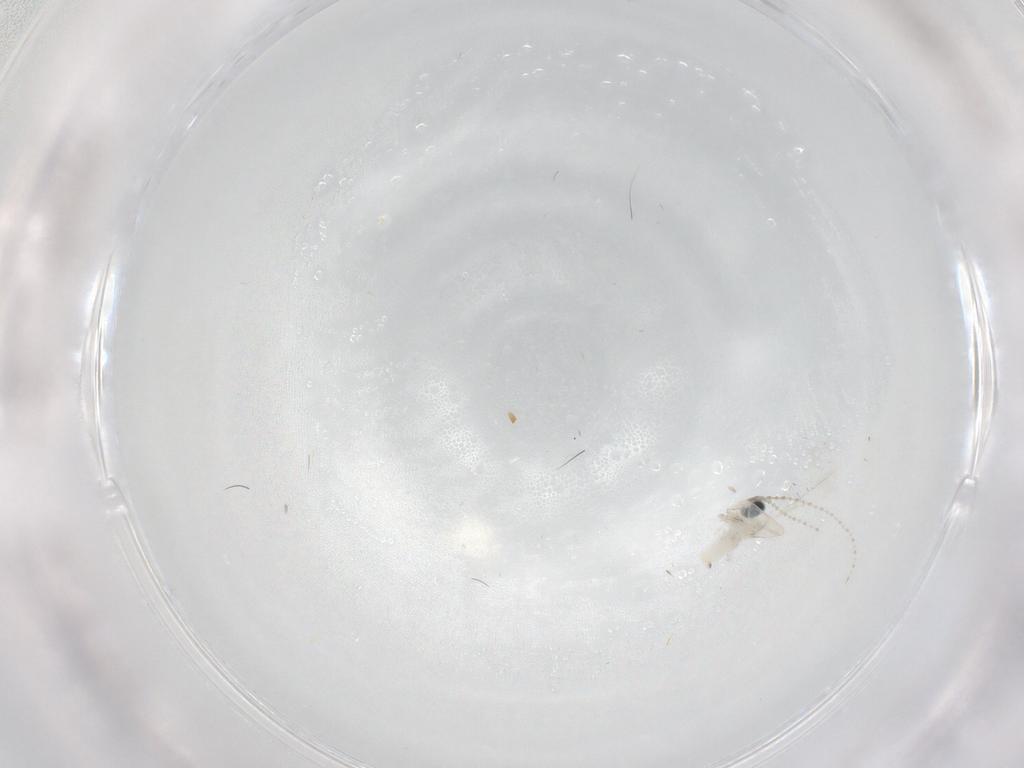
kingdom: Animalia
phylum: Arthropoda
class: Insecta
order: Diptera
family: Cecidomyiidae
